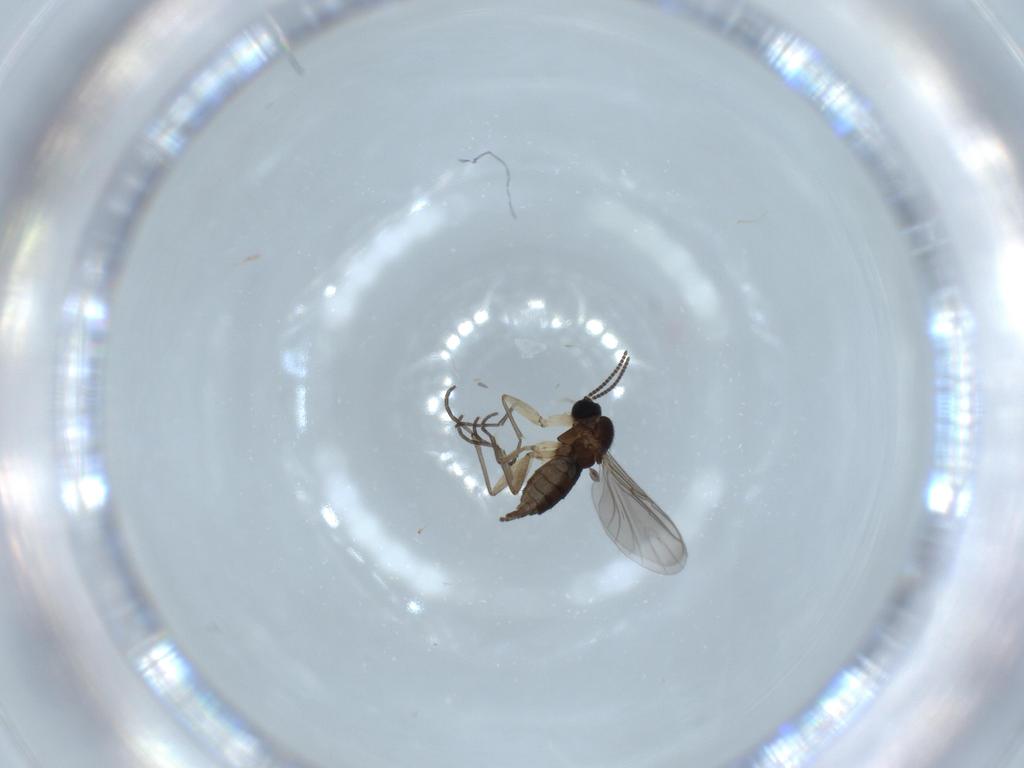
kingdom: Animalia
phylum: Arthropoda
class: Insecta
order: Diptera
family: Sciaridae
